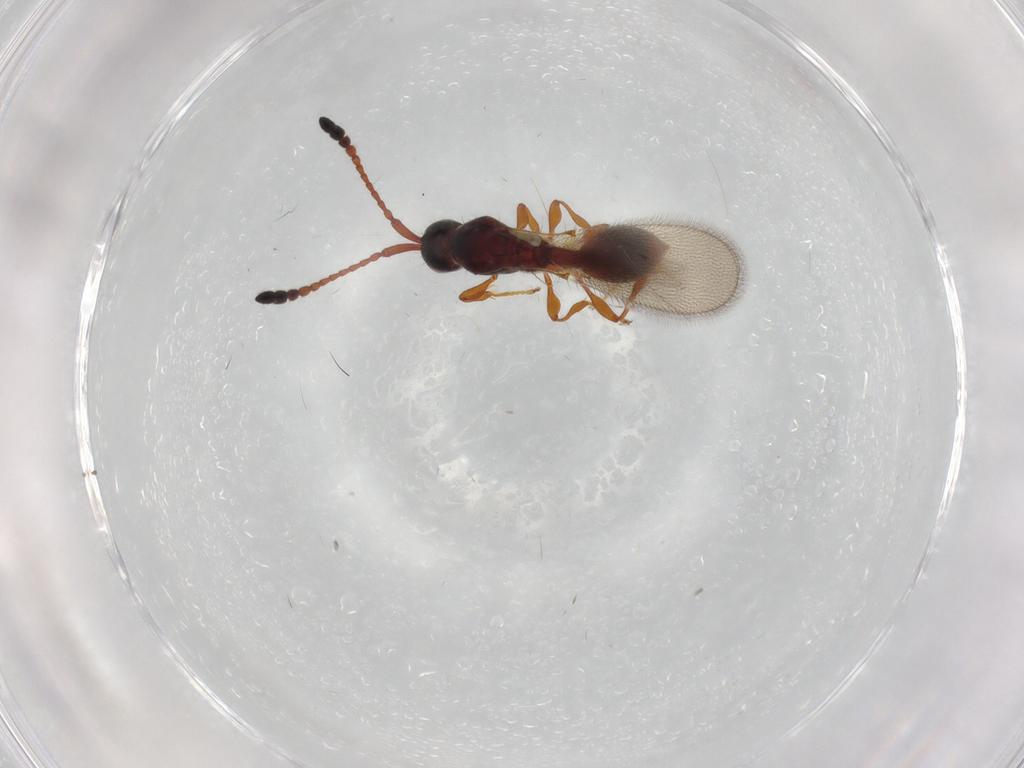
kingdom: Animalia
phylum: Arthropoda
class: Insecta
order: Hymenoptera
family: Diapriidae
